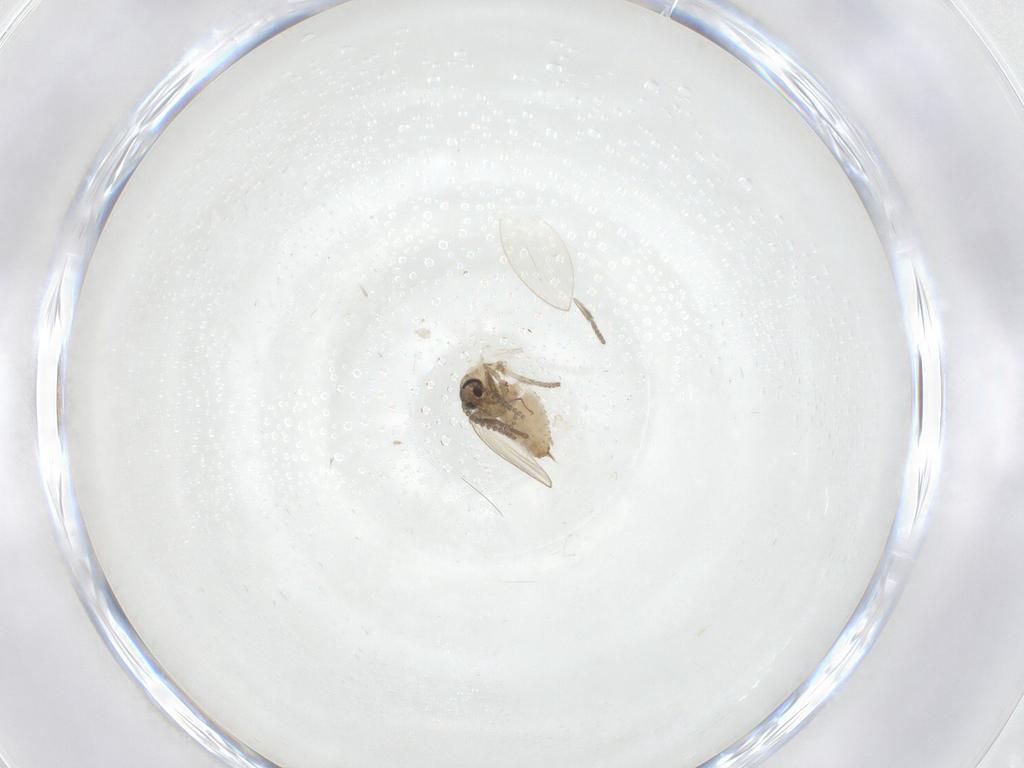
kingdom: Animalia
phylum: Arthropoda
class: Insecta
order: Diptera
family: Psychodidae
